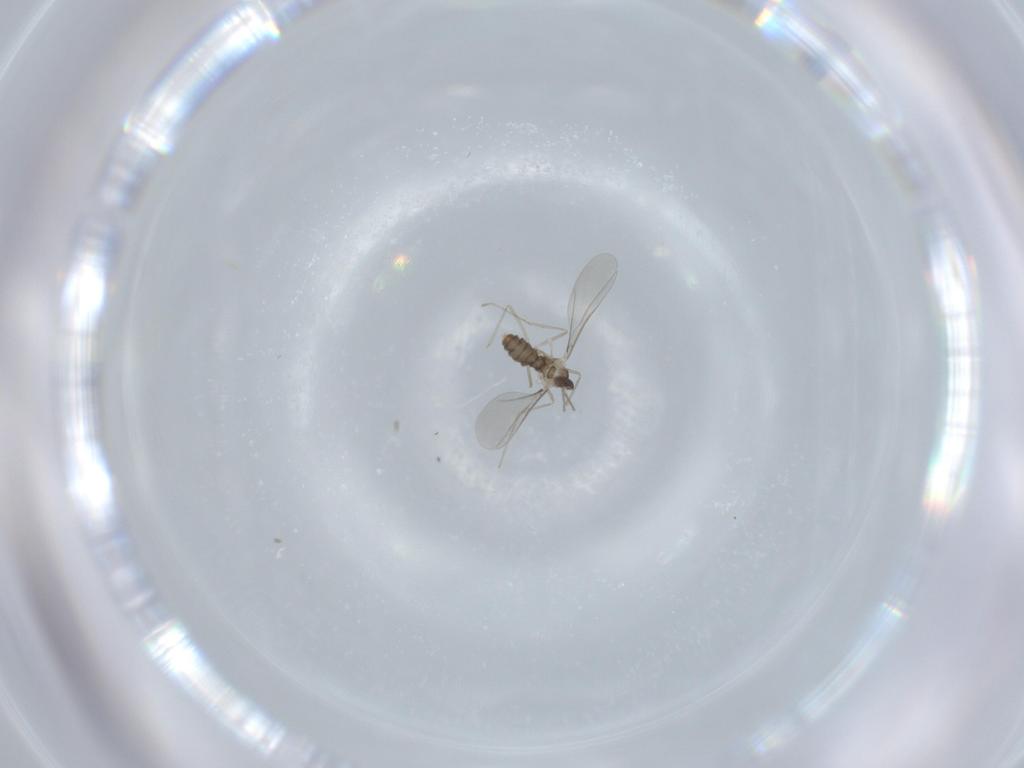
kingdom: Animalia
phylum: Arthropoda
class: Insecta
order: Diptera
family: Cecidomyiidae
